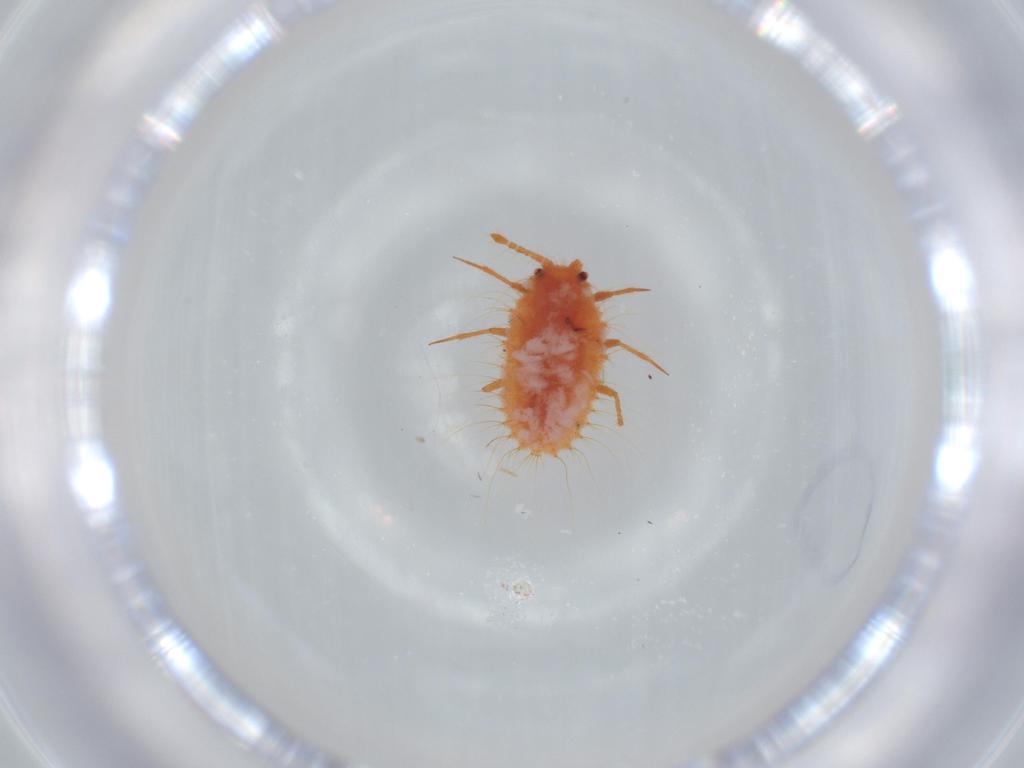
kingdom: Animalia
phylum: Arthropoda
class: Insecta
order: Hemiptera
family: Coccoidea_incertae_sedis
